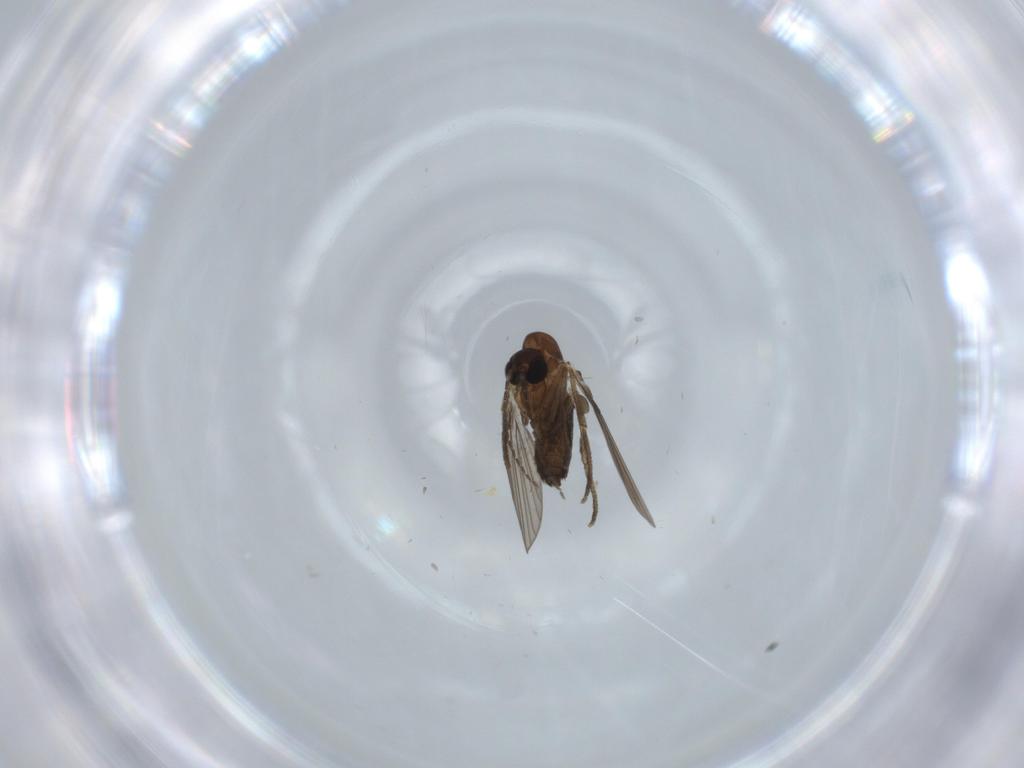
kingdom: Animalia
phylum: Arthropoda
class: Insecta
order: Diptera
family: Psychodidae
